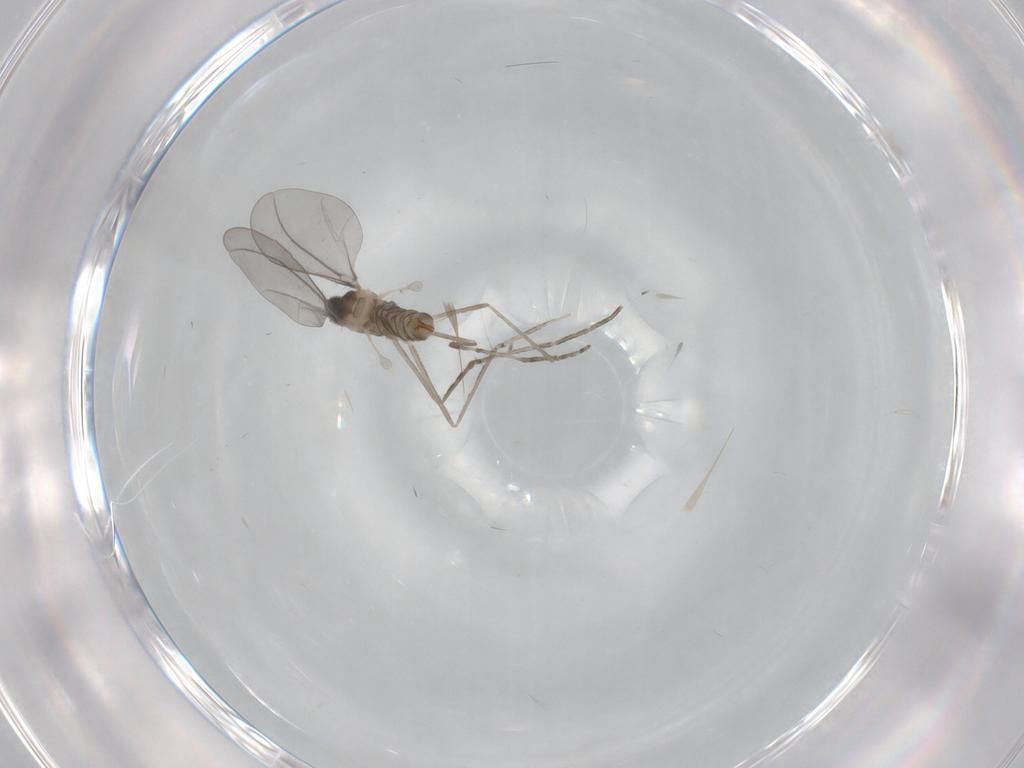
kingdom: Animalia
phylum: Arthropoda
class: Insecta
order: Diptera
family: Cecidomyiidae
